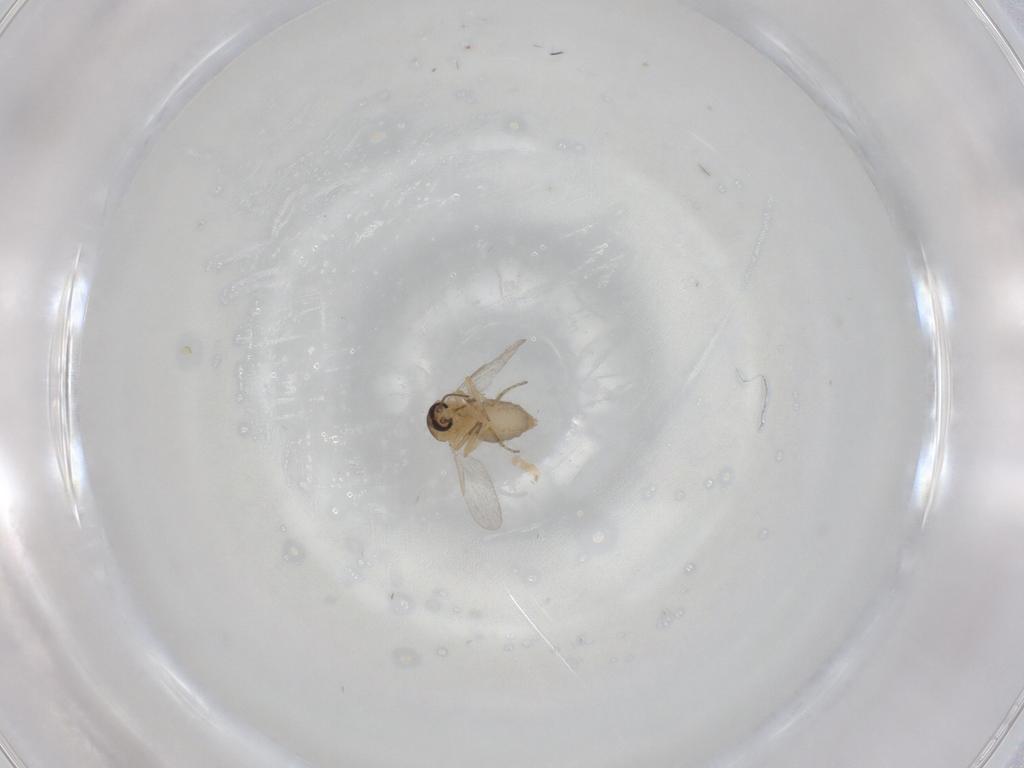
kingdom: Animalia
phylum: Arthropoda
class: Insecta
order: Diptera
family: Ceratopogonidae
